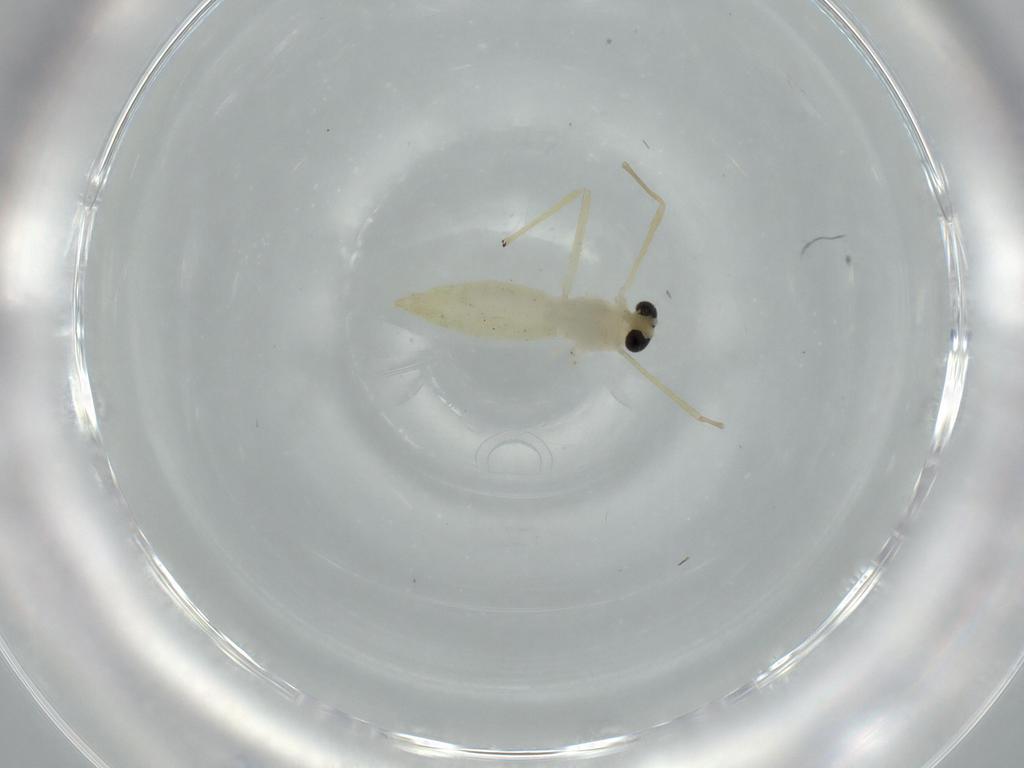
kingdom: Animalia
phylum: Arthropoda
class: Insecta
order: Diptera
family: Chironomidae
